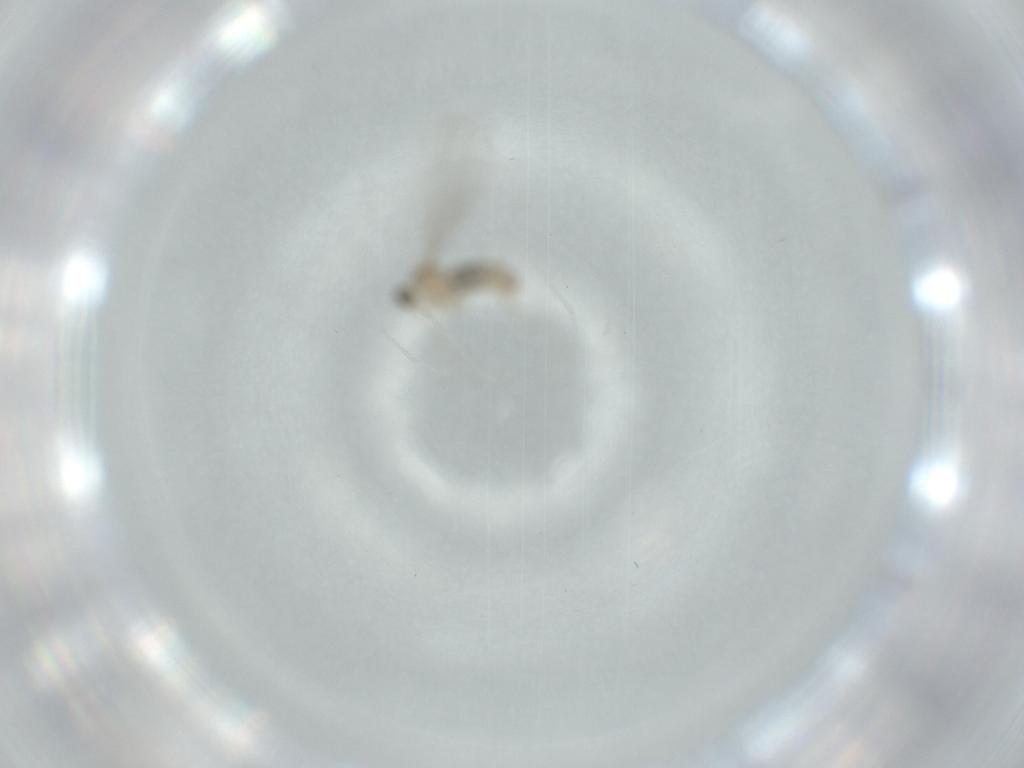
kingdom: Animalia
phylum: Arthropoda
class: Insecta
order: Diptera
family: Cecidomyiidae
